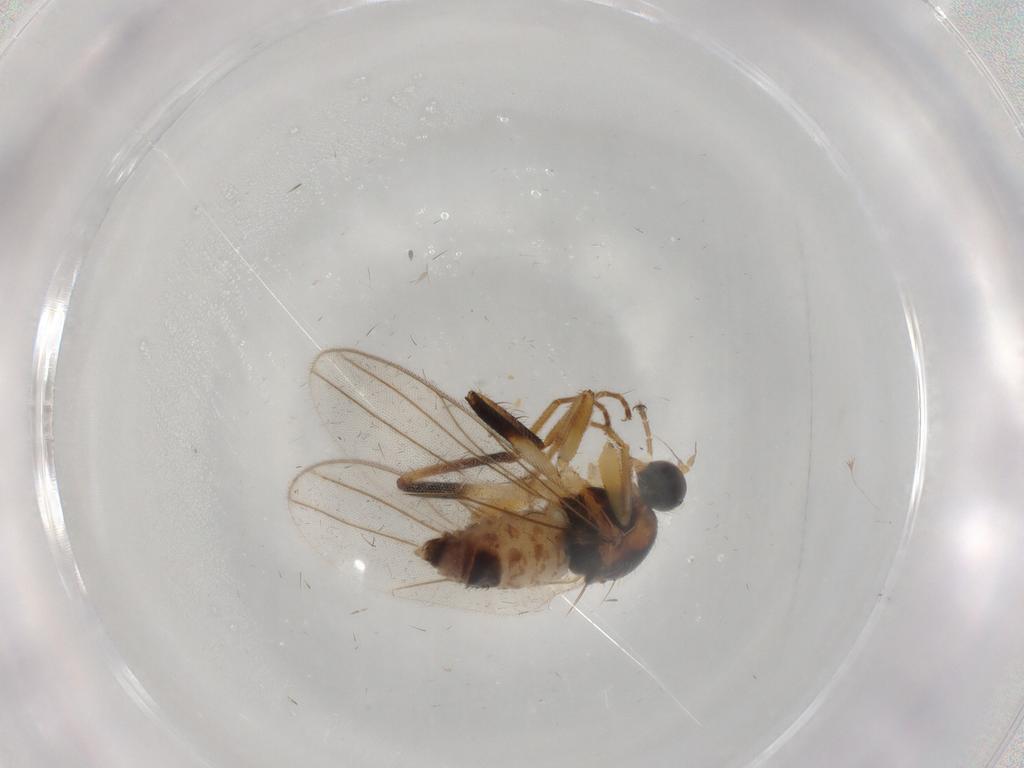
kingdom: Animalia
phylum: Arthropoda
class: Insecta
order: Diptera
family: Hybotidae
